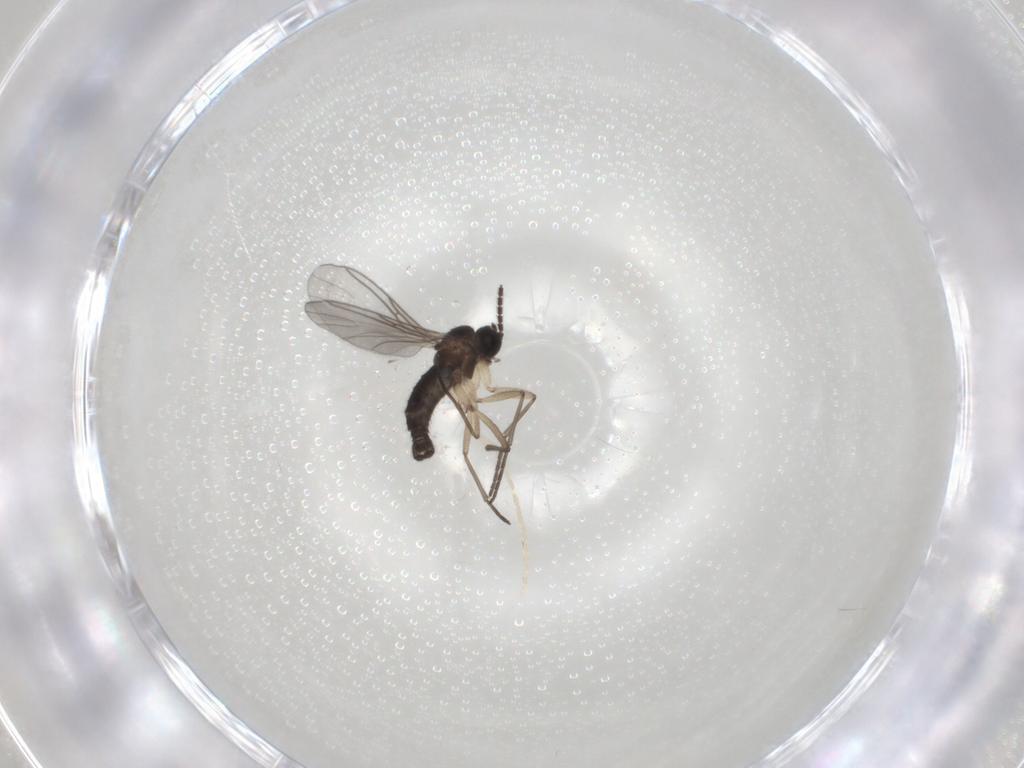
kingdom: Animalia
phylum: Arthropoda
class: Insecta
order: Diptera
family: Sciaridae
